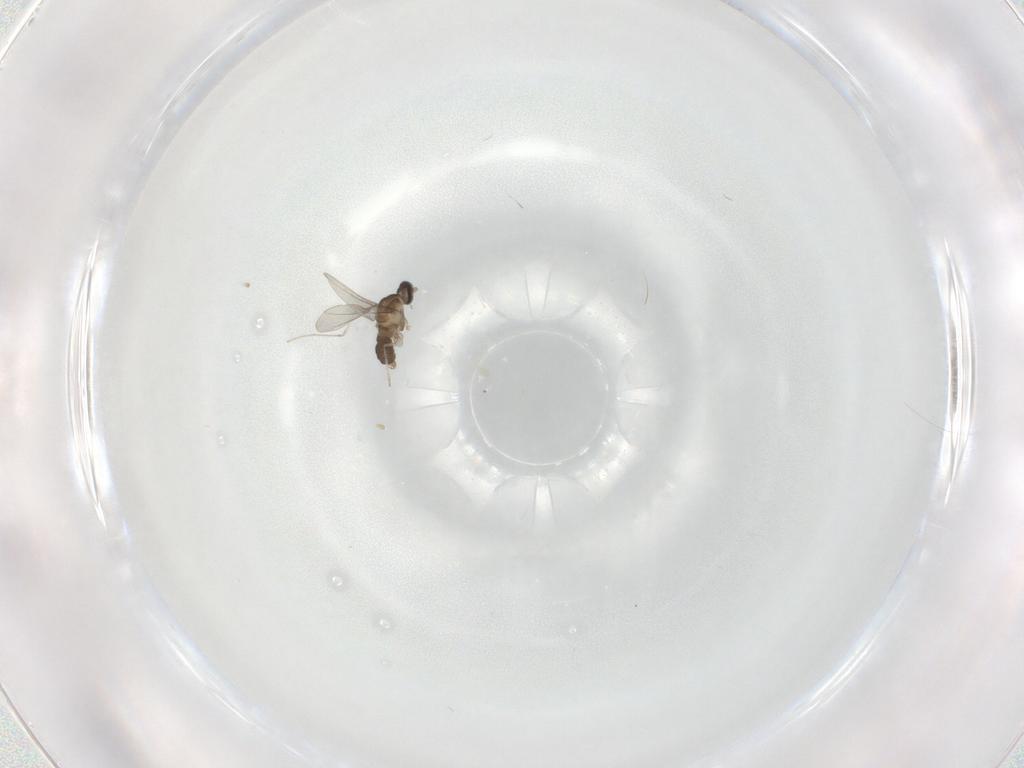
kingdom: Animalia
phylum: Arthropoda
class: Insecta
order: Diptera
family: Cecidomyiidae
